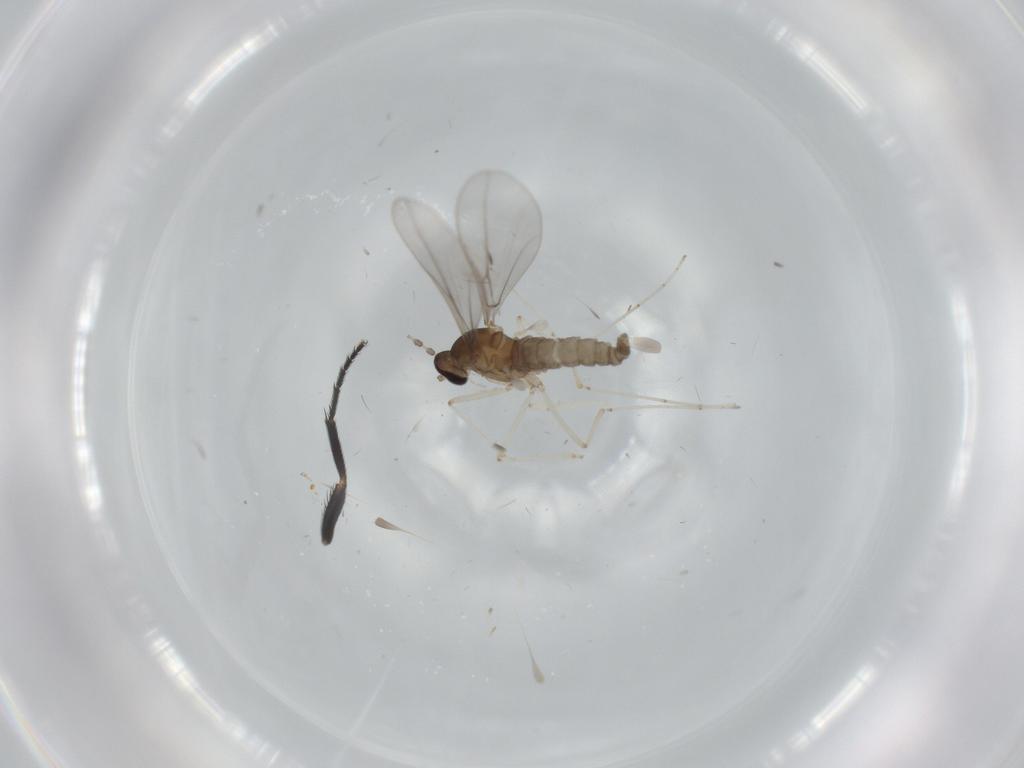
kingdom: Animalia
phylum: Arthropoda
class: Insecta
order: Diptera
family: Cecidomyiidae
